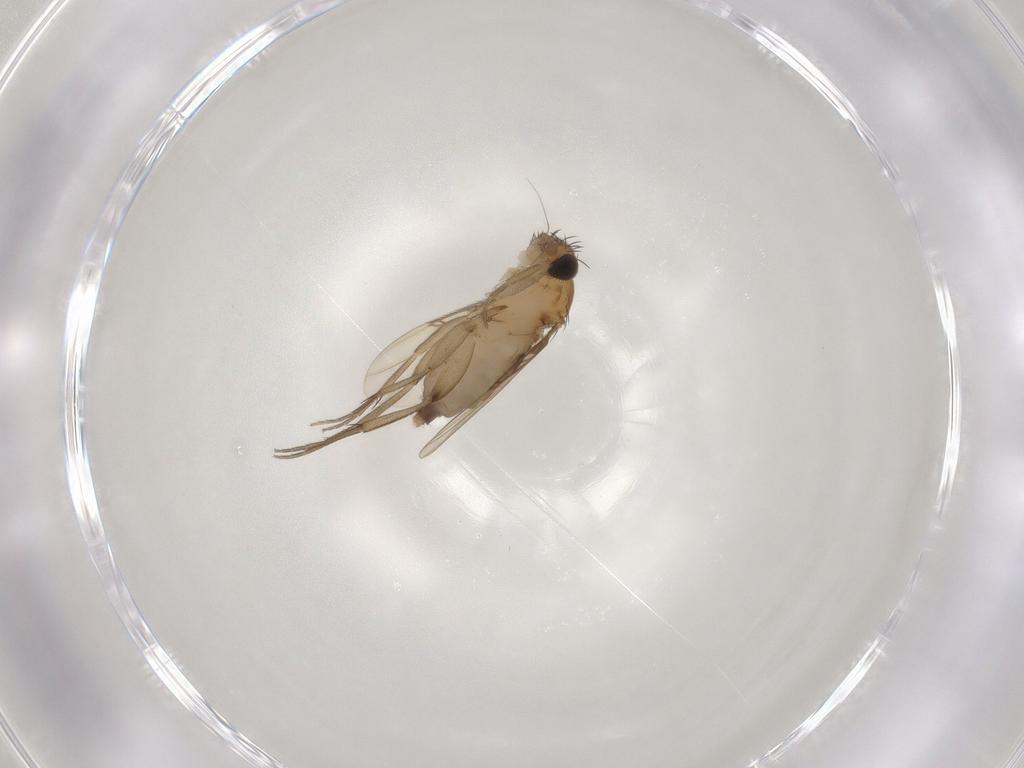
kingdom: Animalia
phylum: Arthropoda
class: Insecta
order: Diptera
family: Phoridae
